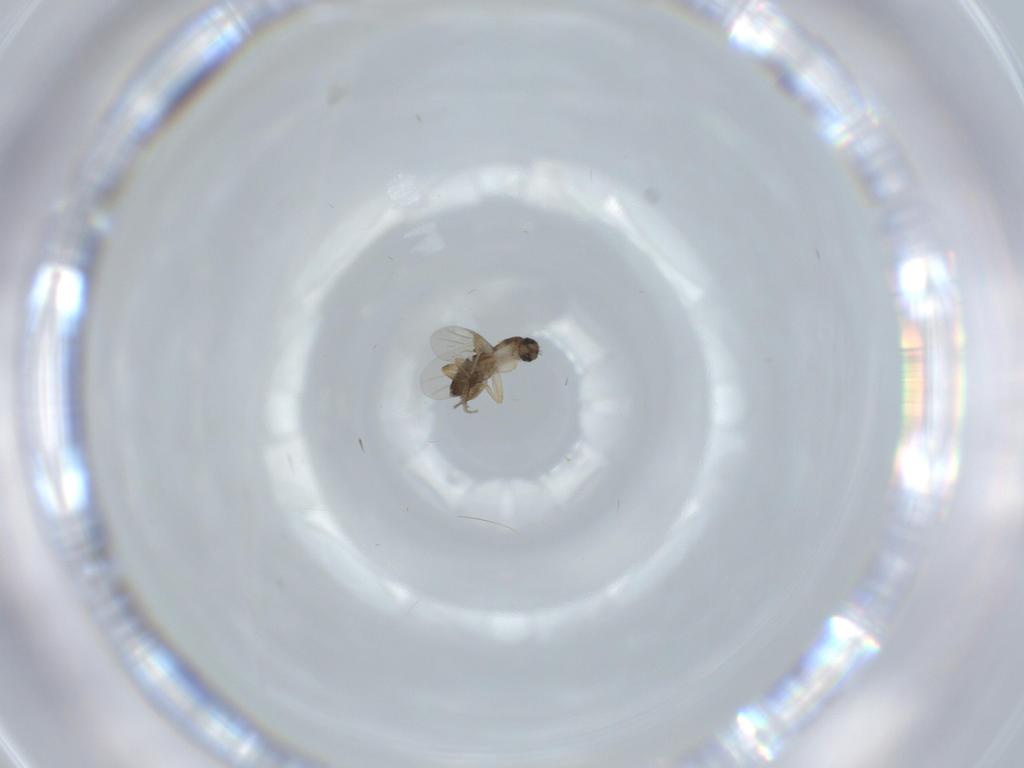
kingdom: Animalia
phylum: Arthropoda
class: Insecta
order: Diptera
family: Phoridae
